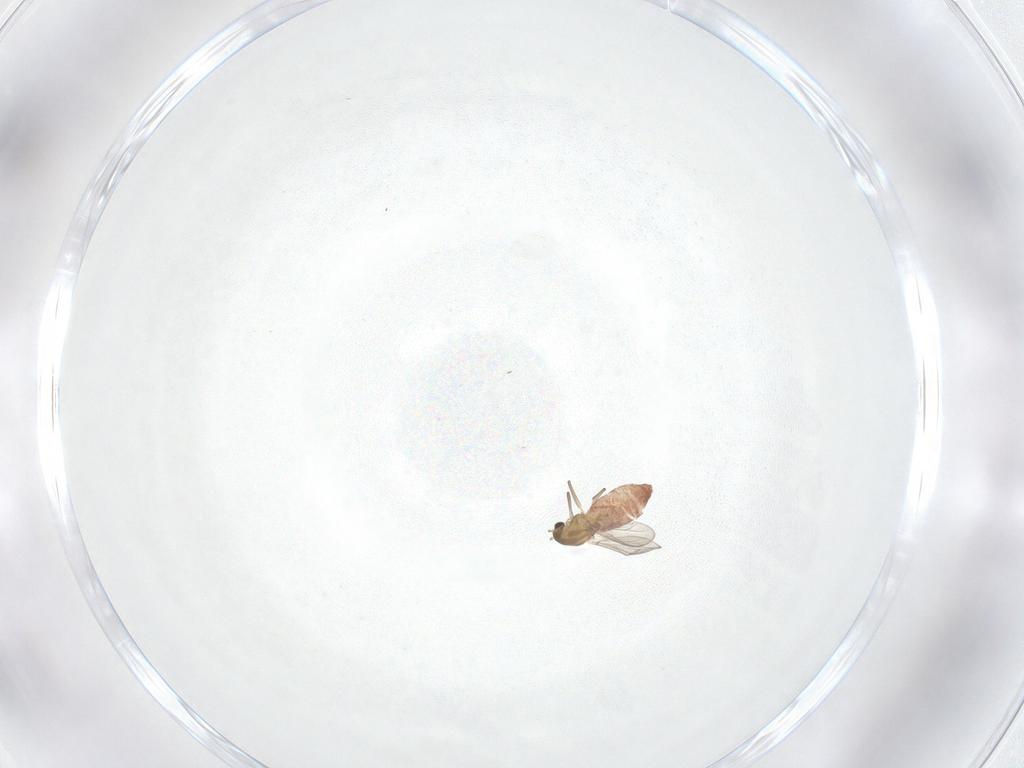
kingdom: Animalia
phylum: Arthropoda
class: Insecta
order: Diptera
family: Chironomidae
